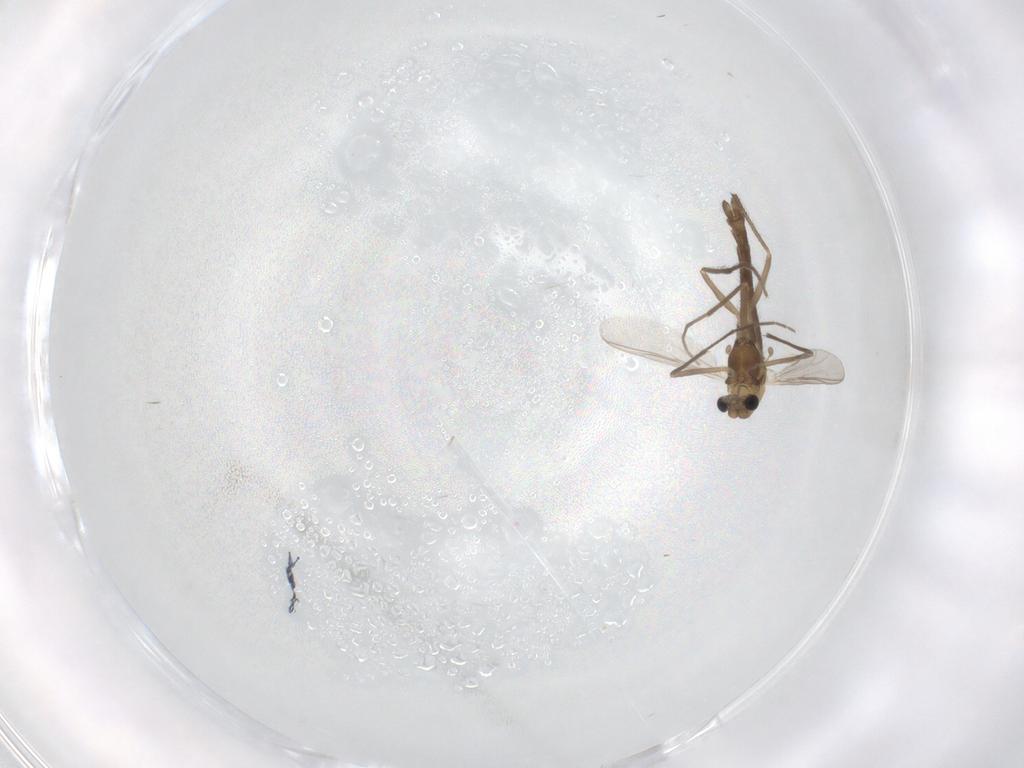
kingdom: Animalia
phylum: Arthropoda
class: Insecta
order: Diptera
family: Chironomidae
